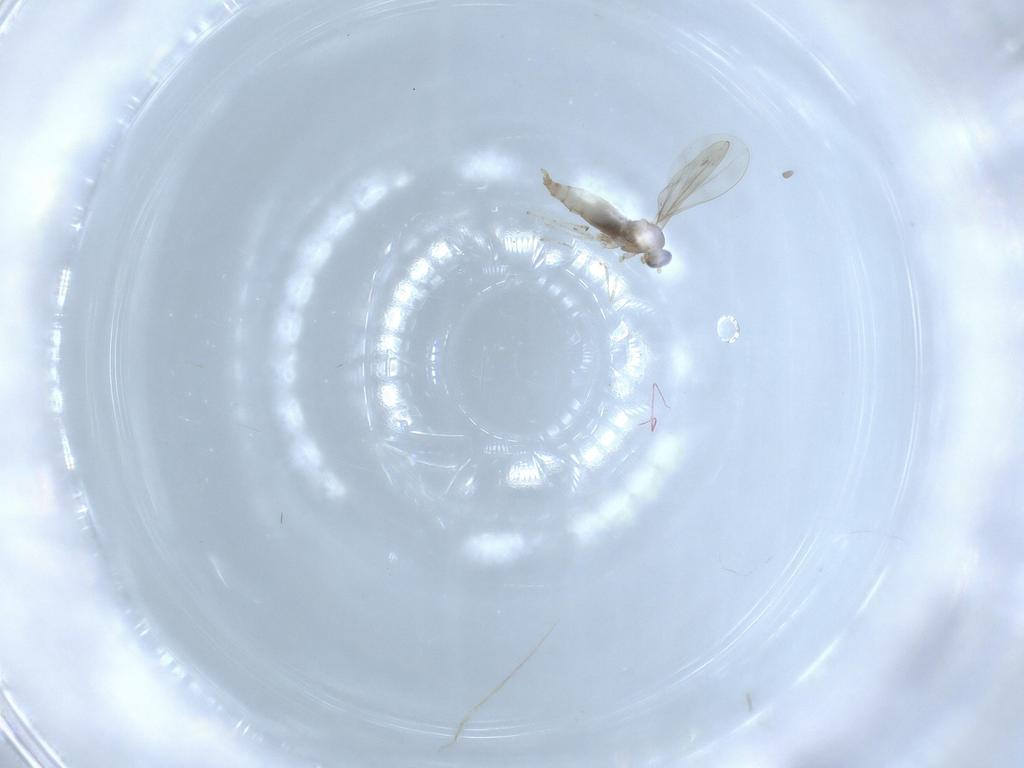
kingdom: Animalia
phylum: Arthropoda
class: Insecta
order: Diptera
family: Cecidomyiidae
